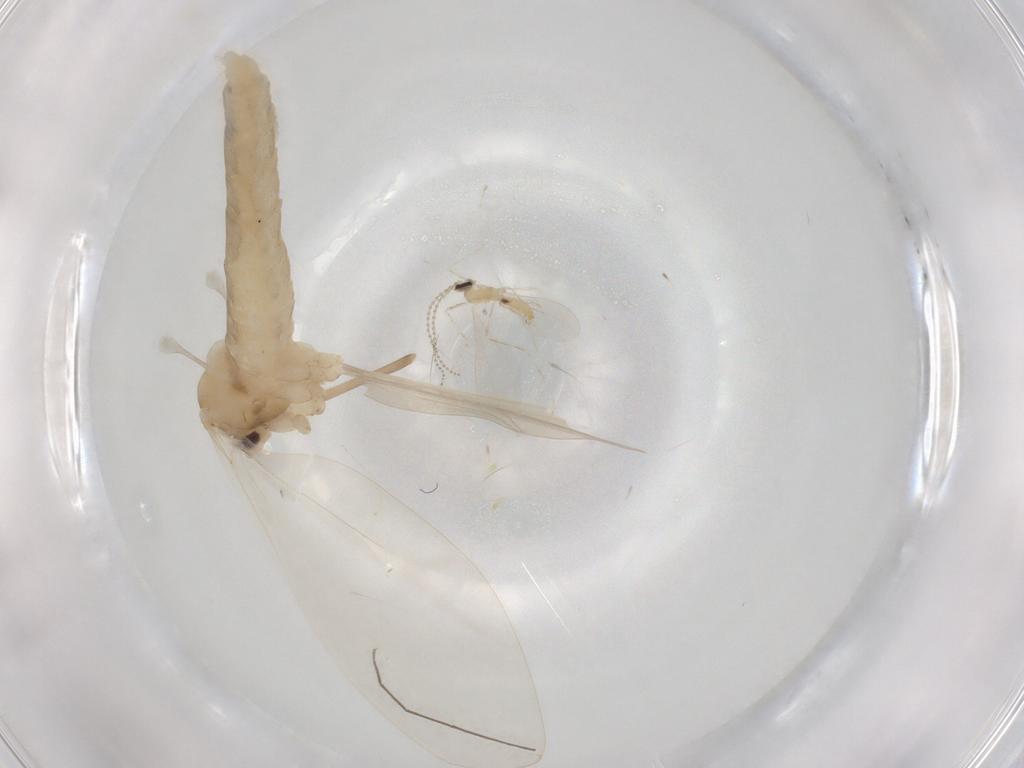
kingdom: Animalia
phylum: Arthropoda
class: Insecta
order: Diptera
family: Cecidomyiidae
